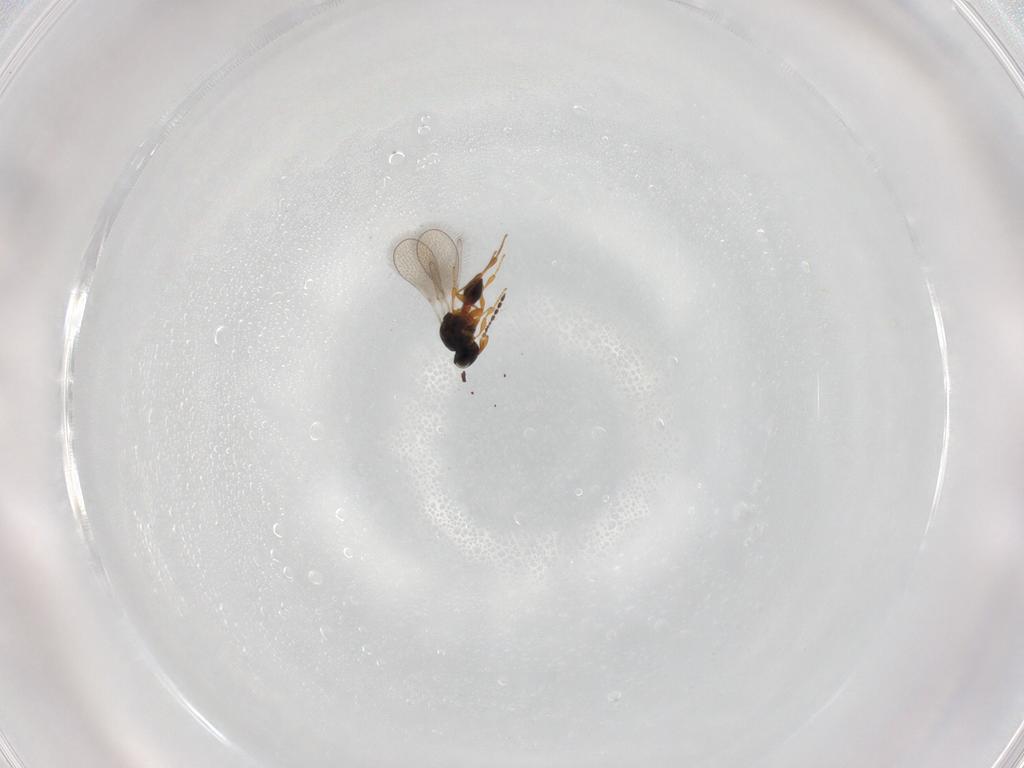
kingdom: Animalia
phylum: Arthropoda
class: Insecta
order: Hymenoptera
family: Platygastridae
